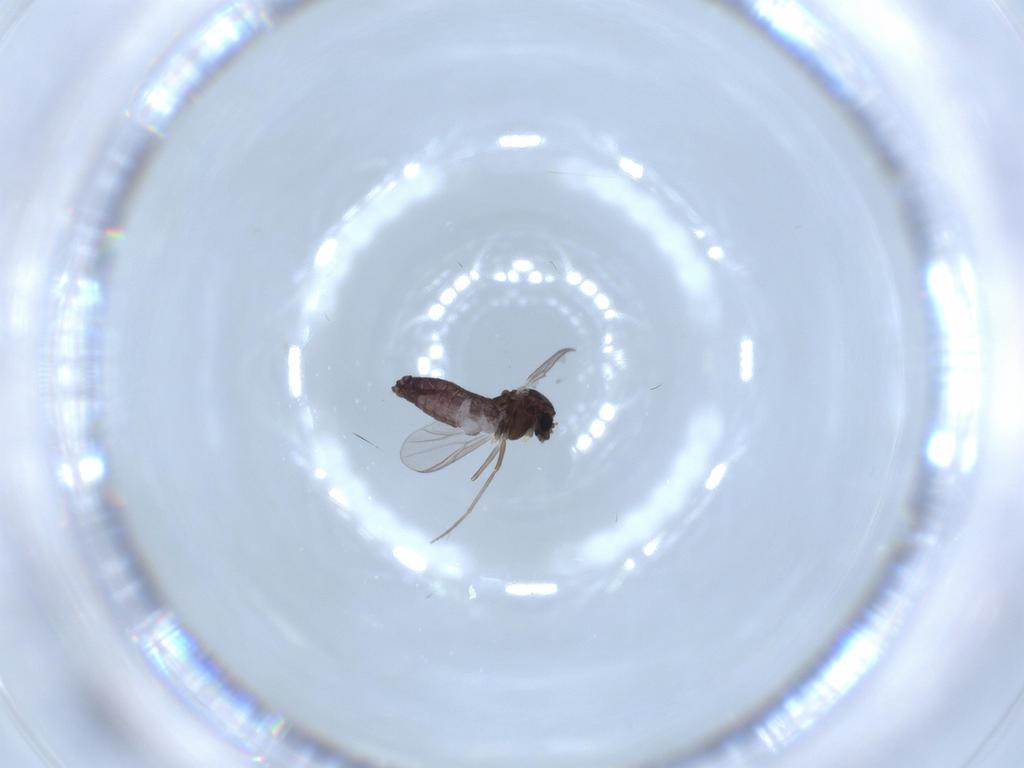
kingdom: Animalia
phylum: Arthropoda
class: Insecta
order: Diptera
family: Chironomidae
